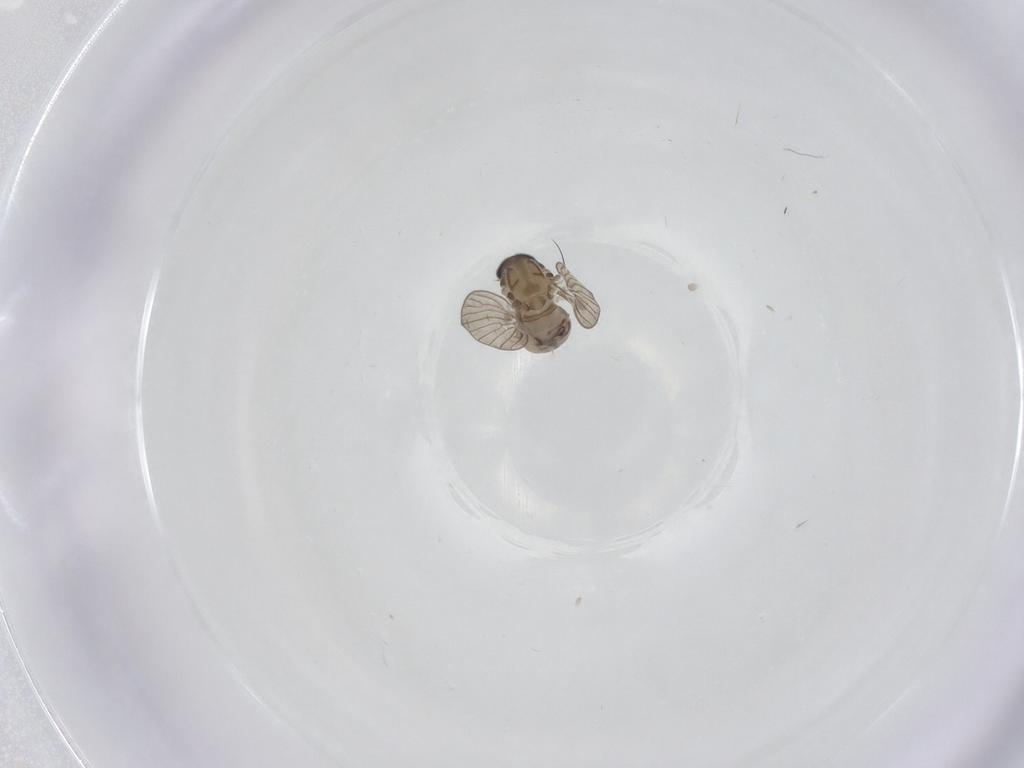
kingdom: Animalia
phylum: Arthropoda
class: Insecta
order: Diptera
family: Psychodidae
